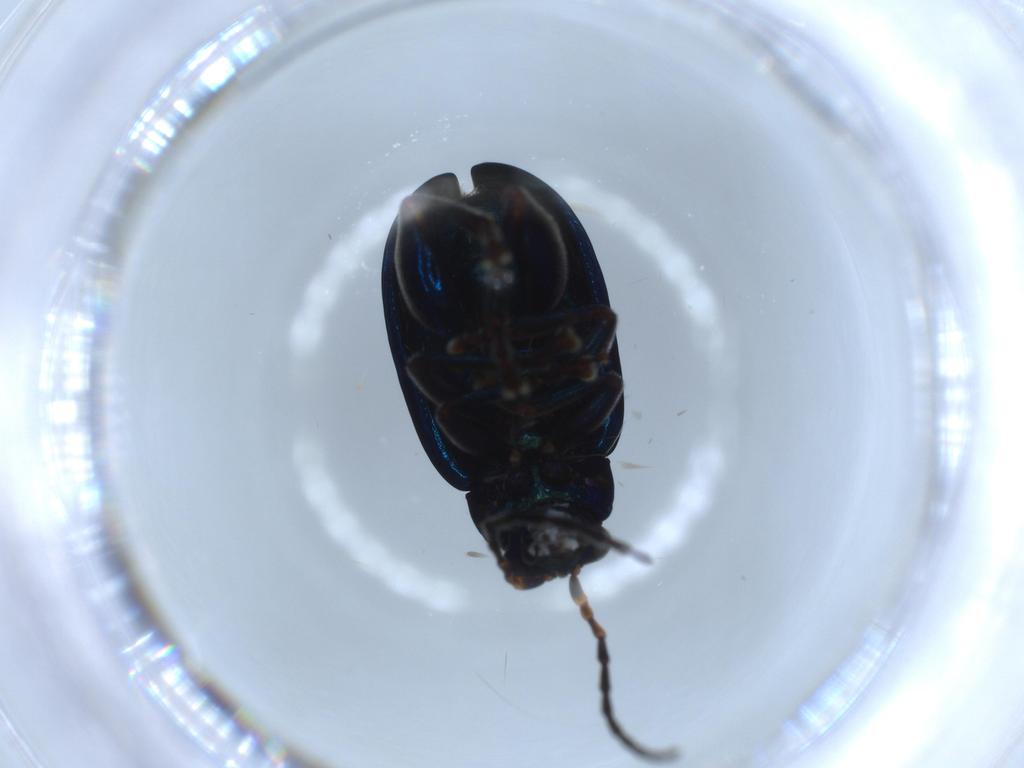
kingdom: Animalia
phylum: Arthropoda
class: Insecta
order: Coleoptera
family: Chrysomelidae
